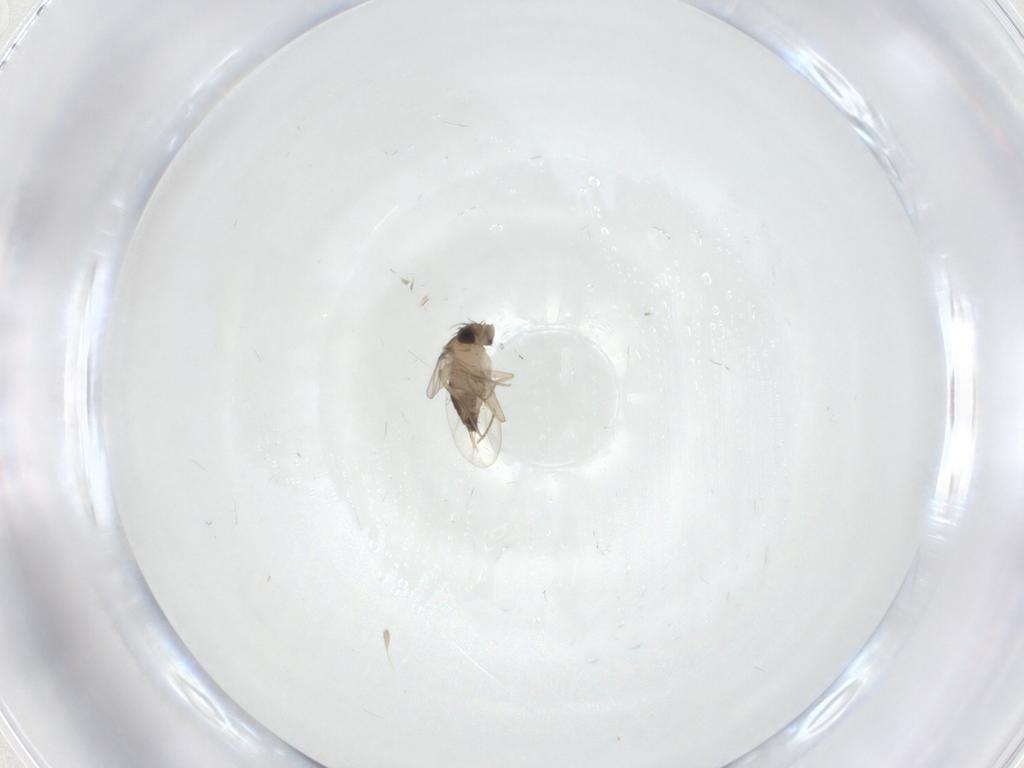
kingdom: Animalia
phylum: Arthropoda
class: Insecta
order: Diptera
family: Phoridae
